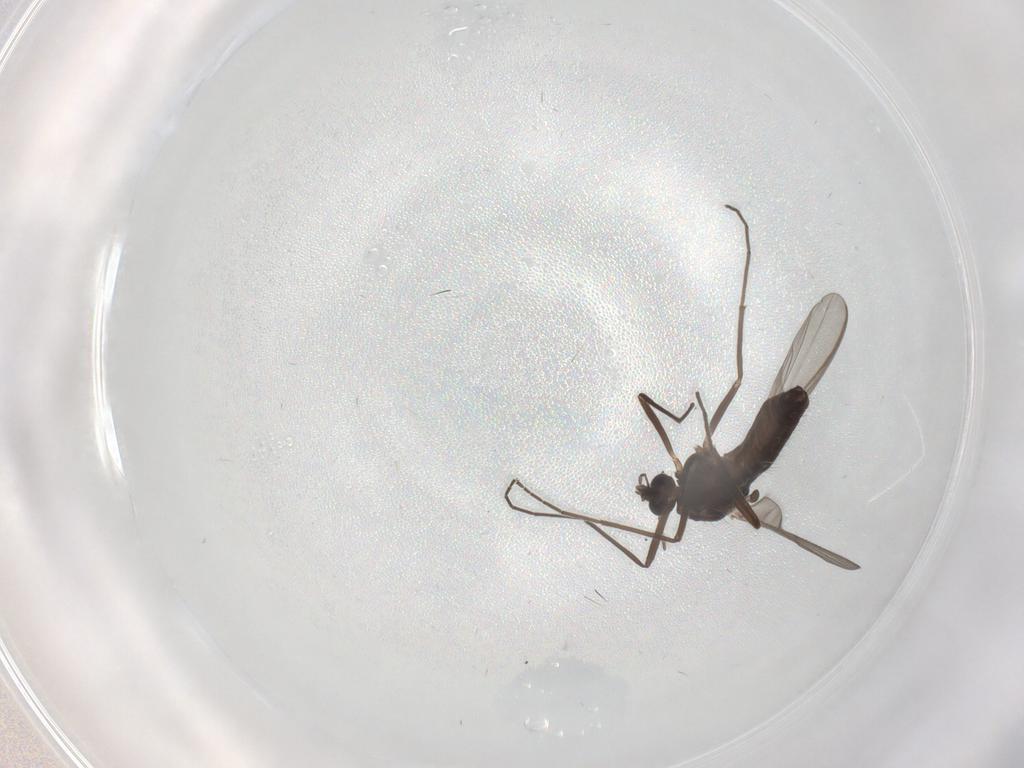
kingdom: Animalia
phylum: Arthropoda
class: Insecta
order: Diptera
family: Chironomidae
